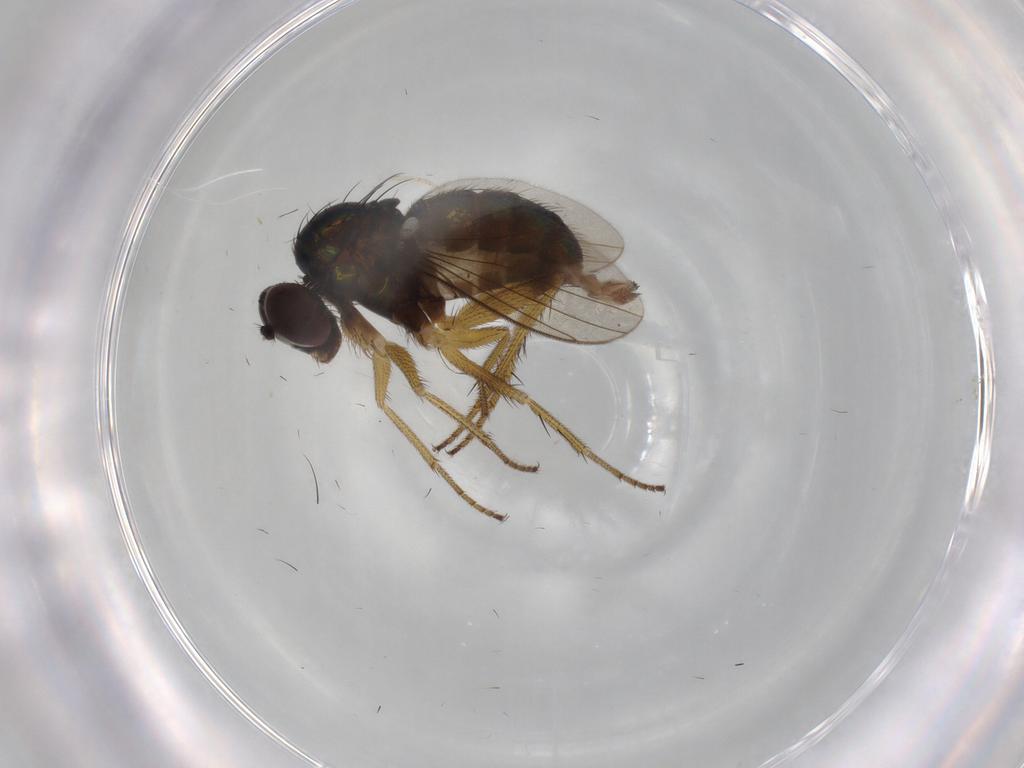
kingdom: Animalia
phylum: Arthropoda
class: Insecta
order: Diptera
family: Dolichopodidae
